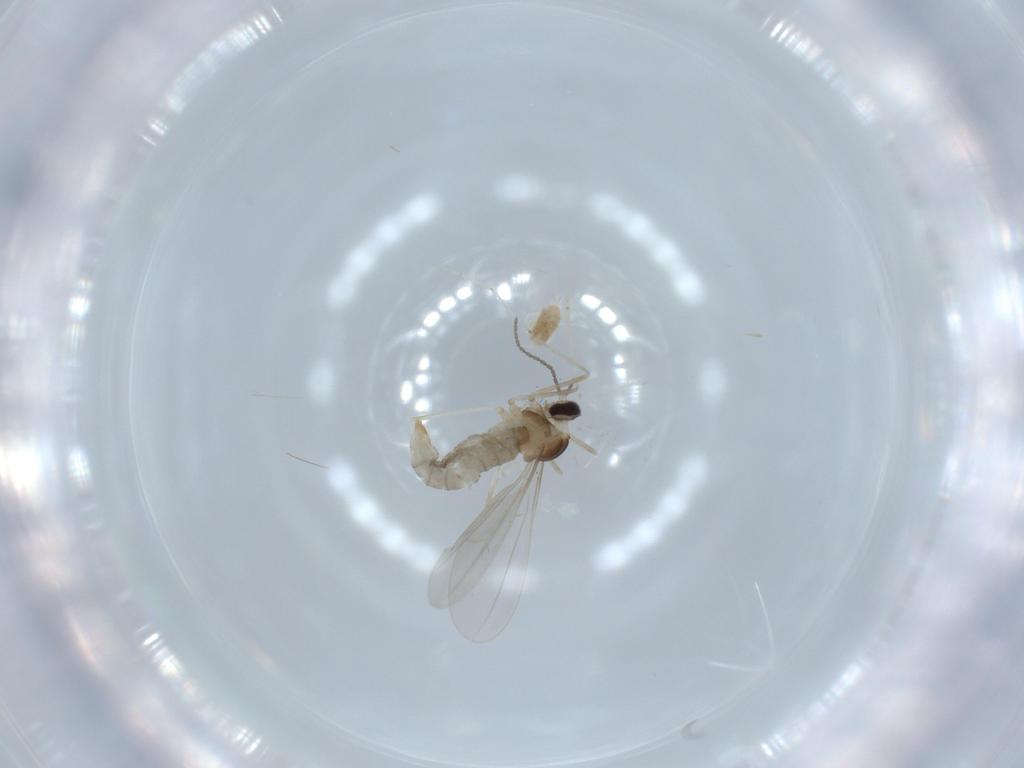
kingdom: Animalia
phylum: Arthropoda
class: Insecta
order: Diptera
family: Cecidomyiidae
